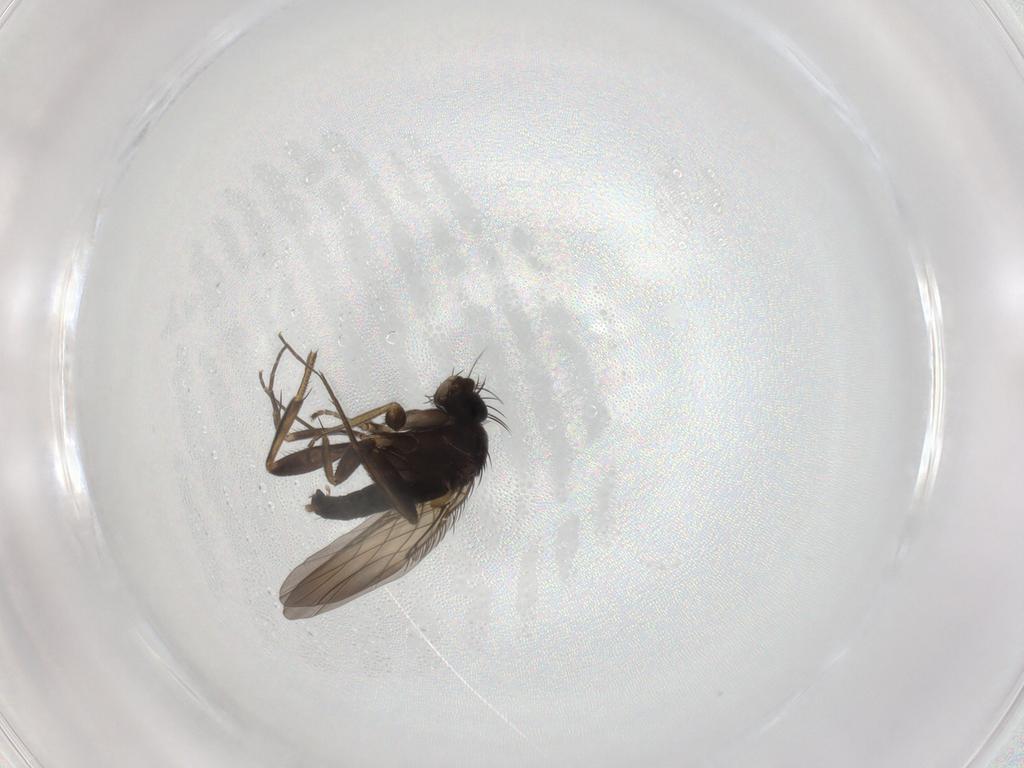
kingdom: Animalia
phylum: Arthropoda
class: Insecta
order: Diptera
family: Phoridae
